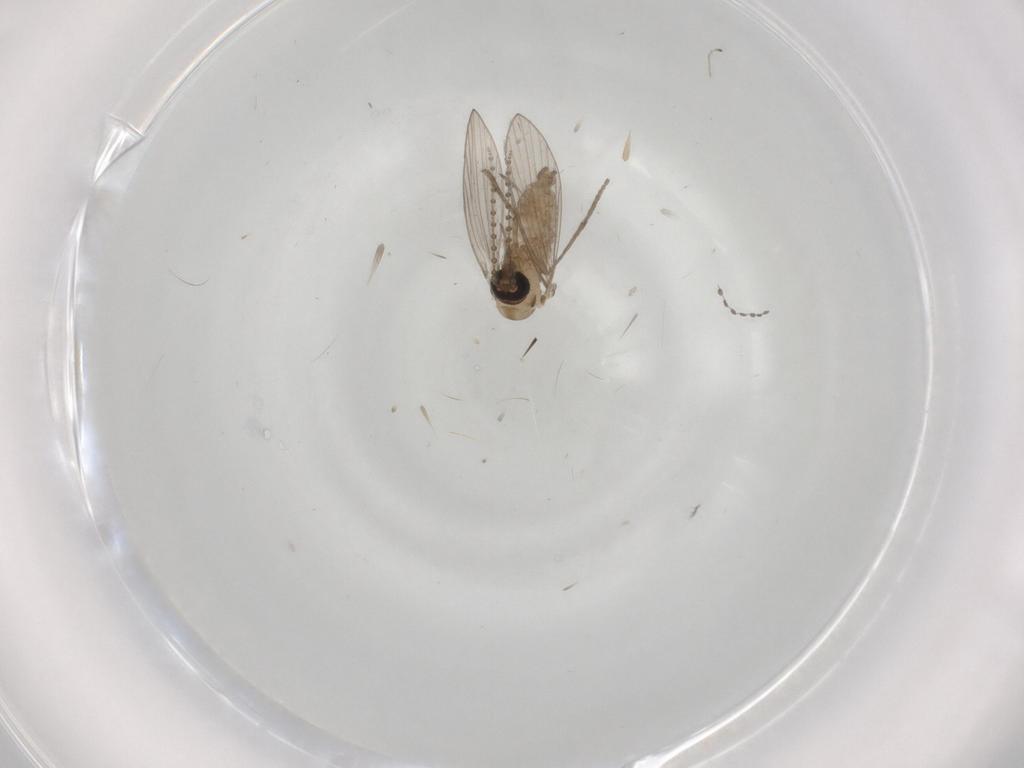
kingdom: Animalia
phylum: Arthropoda
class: Insecta
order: Diptera
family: Psychodidae
